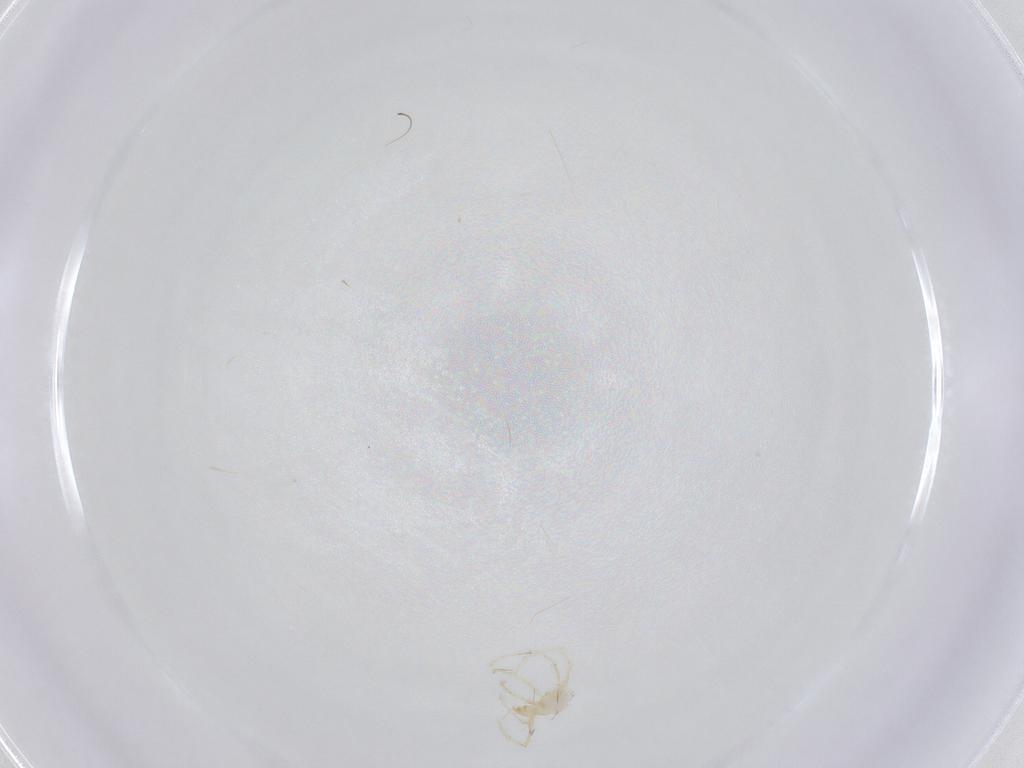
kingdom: Animalia
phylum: Arthropoda
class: Arachnida
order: Trombidiformes
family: Erythraeidae
